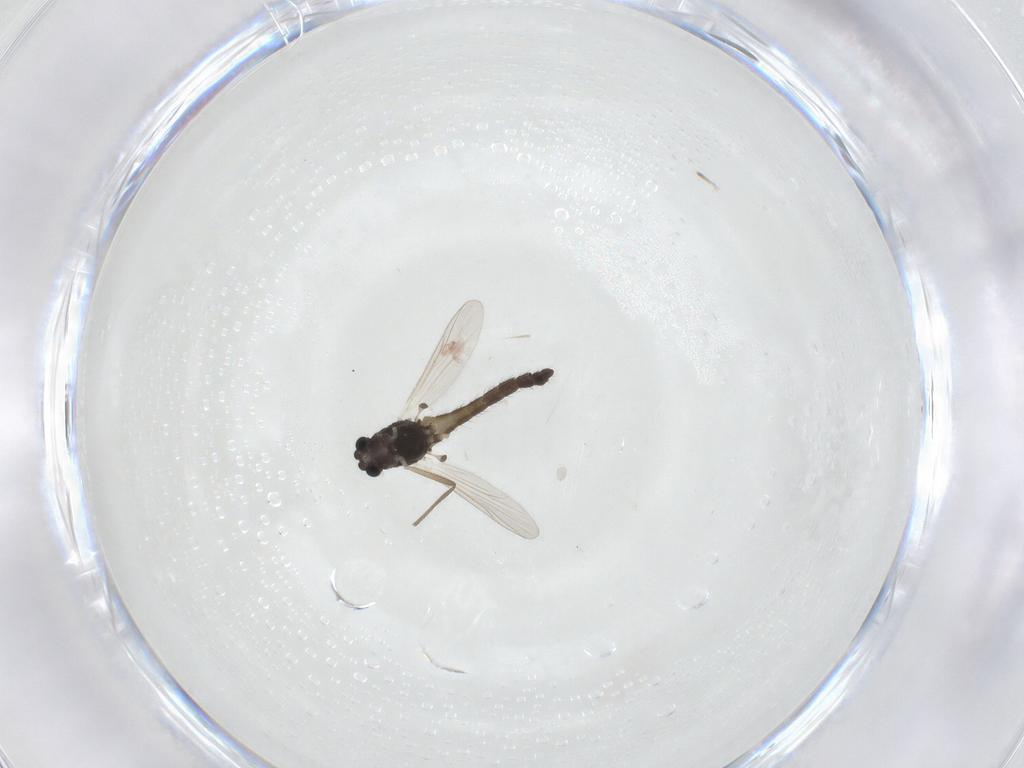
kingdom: Animalia
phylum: Arthropoda
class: Insecta
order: Diptera
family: Chironomidae
